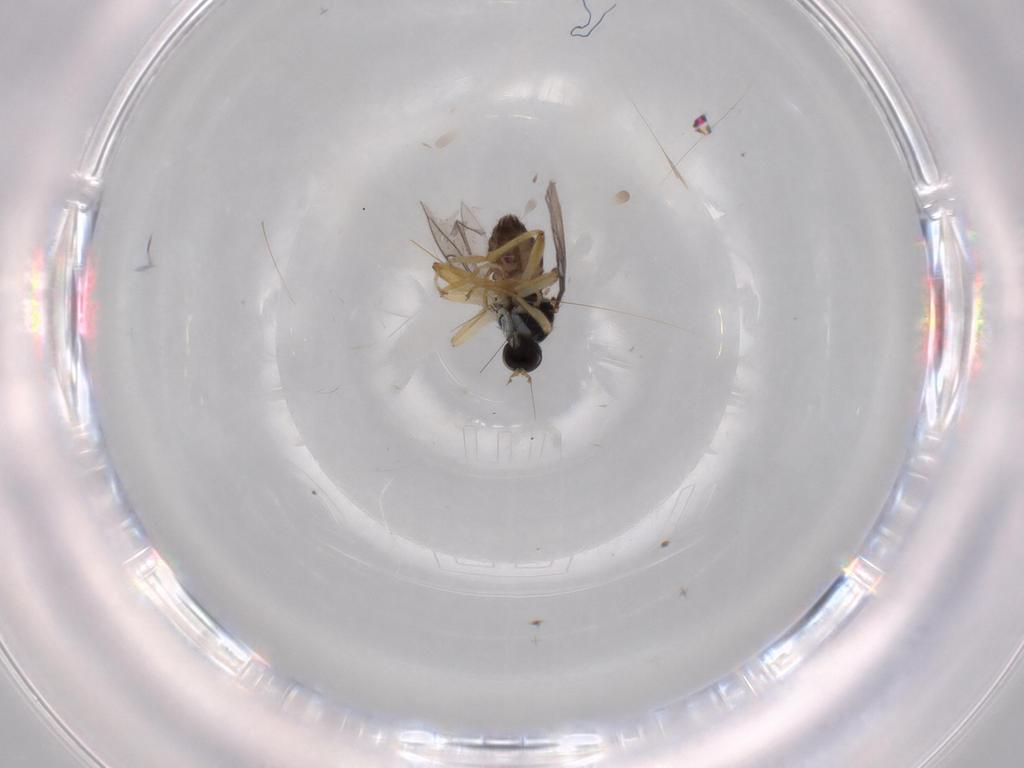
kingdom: Animalia
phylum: Arthropoda
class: Insecta
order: Diptera
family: Hybotidae
